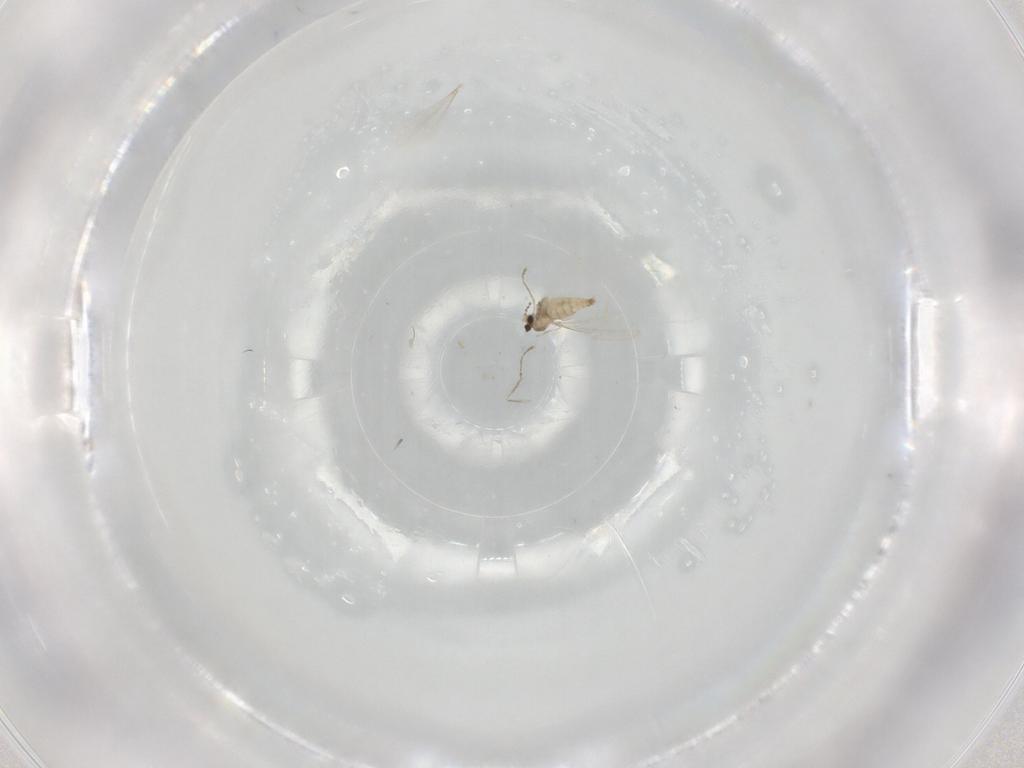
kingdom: Animalia
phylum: Arthropoda
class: Insecta
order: Diptera
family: Cecidomyiidae
